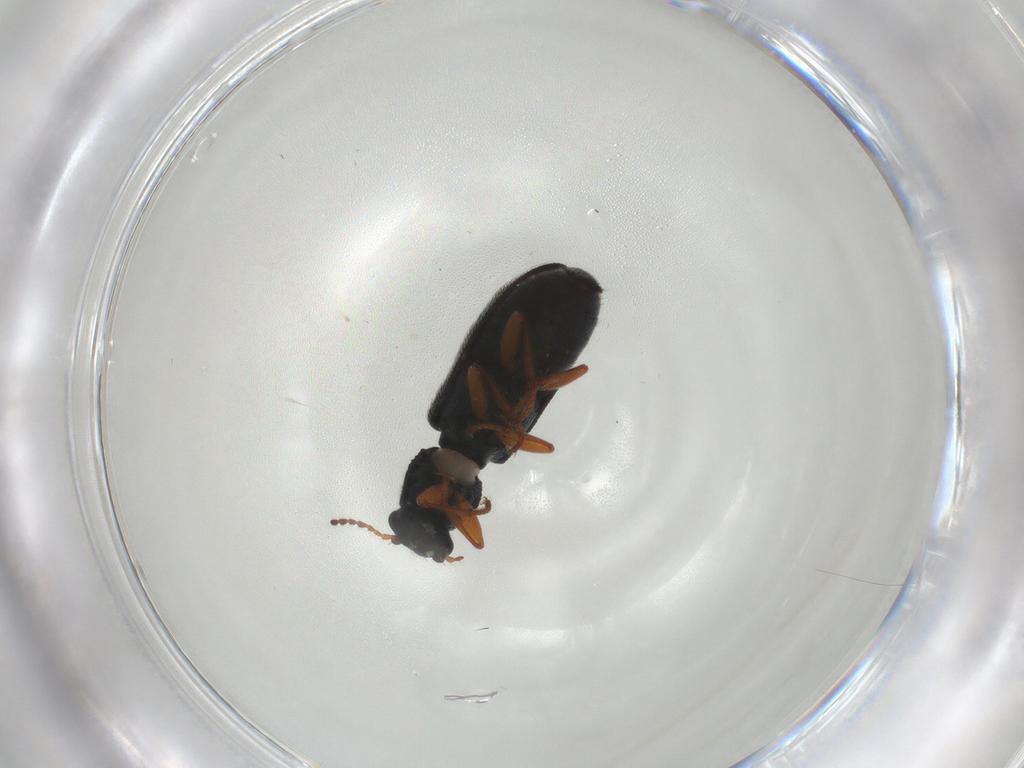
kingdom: Animalia
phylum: Arthropoda
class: Insecta
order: Coleoptera
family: Melyridae
